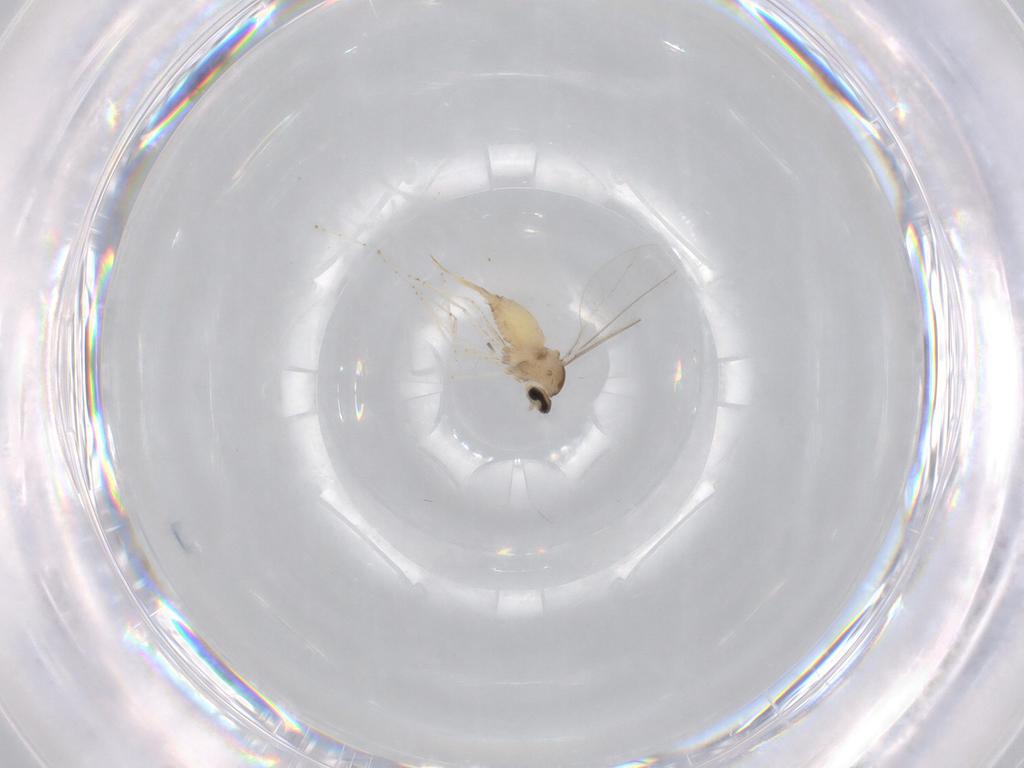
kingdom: Animalia
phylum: Arthropoda
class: Insecta
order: Diptera
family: Cecidomyiidae
